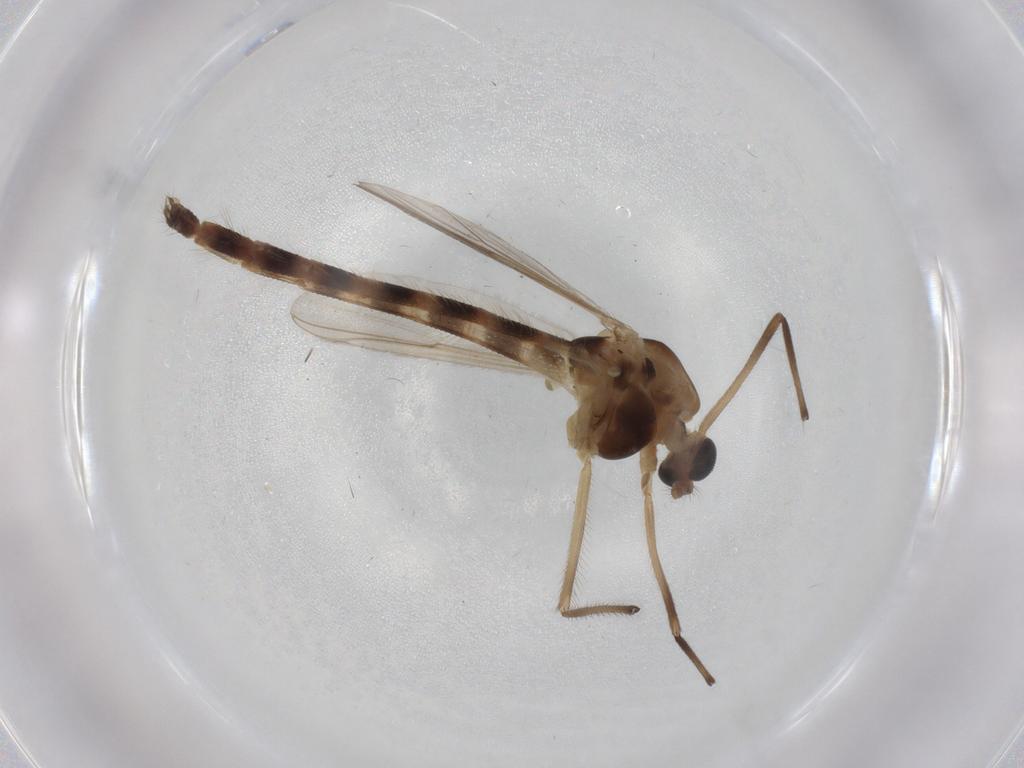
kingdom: Animalia
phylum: Arthropoda
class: Insecta
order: Diptera
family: Chironomidae
